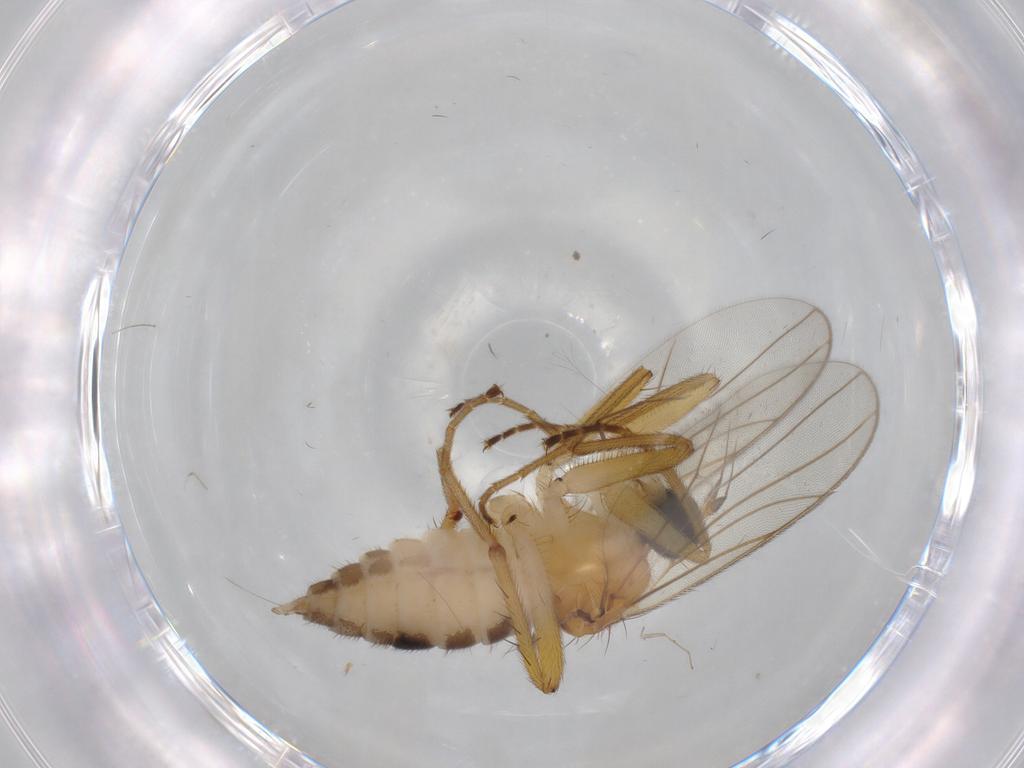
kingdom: Animalia
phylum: Arthropoda
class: Insecta
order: Diptera
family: Hybotidae
